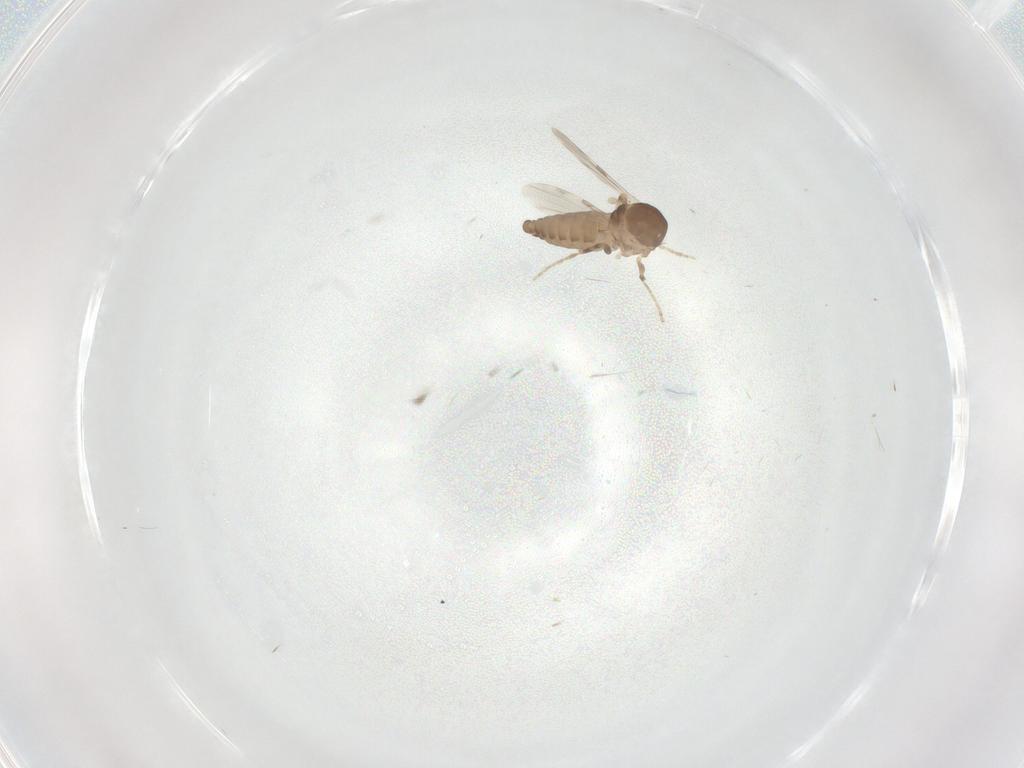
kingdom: Animalia
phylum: Arthropoda
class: Insecta
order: Diptera
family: Ceratopogonidae
